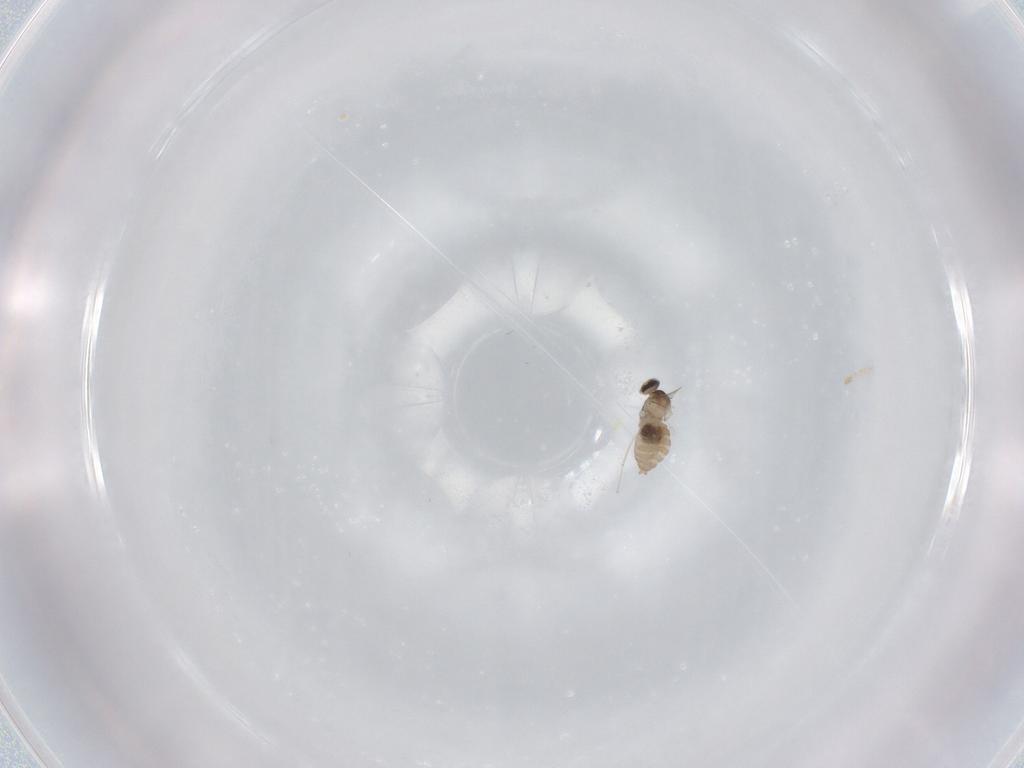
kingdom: Animalia
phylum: Arthropoda
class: Insecta
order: Diptera
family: Cecidomyiidae
